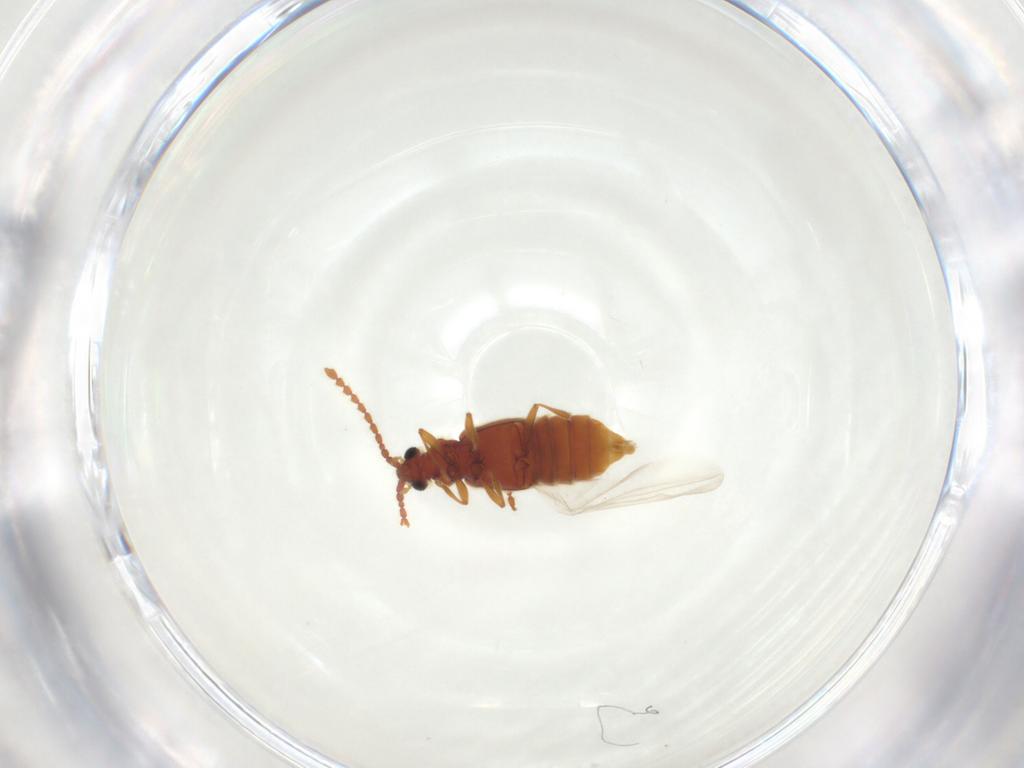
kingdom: Animalia
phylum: Arthropoda
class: Insecta
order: Coleoptera
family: Staphylinidae
